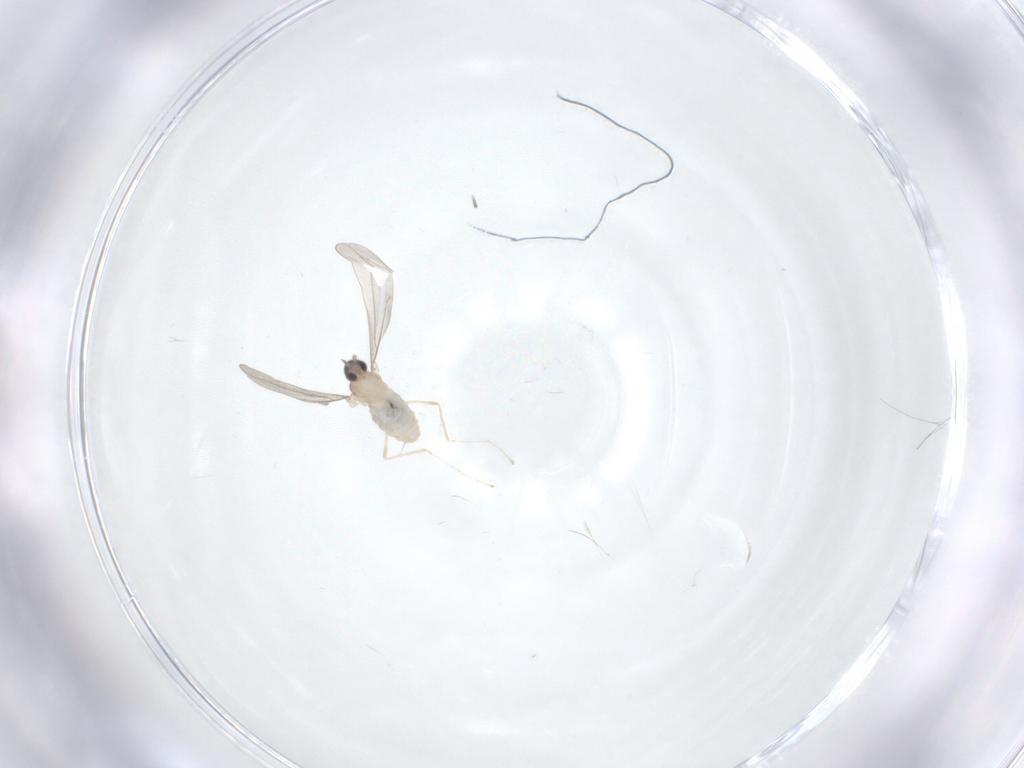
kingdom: Animalia
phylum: Arthropoda
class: Insecta
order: Diptera
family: Cecidomyiidae
